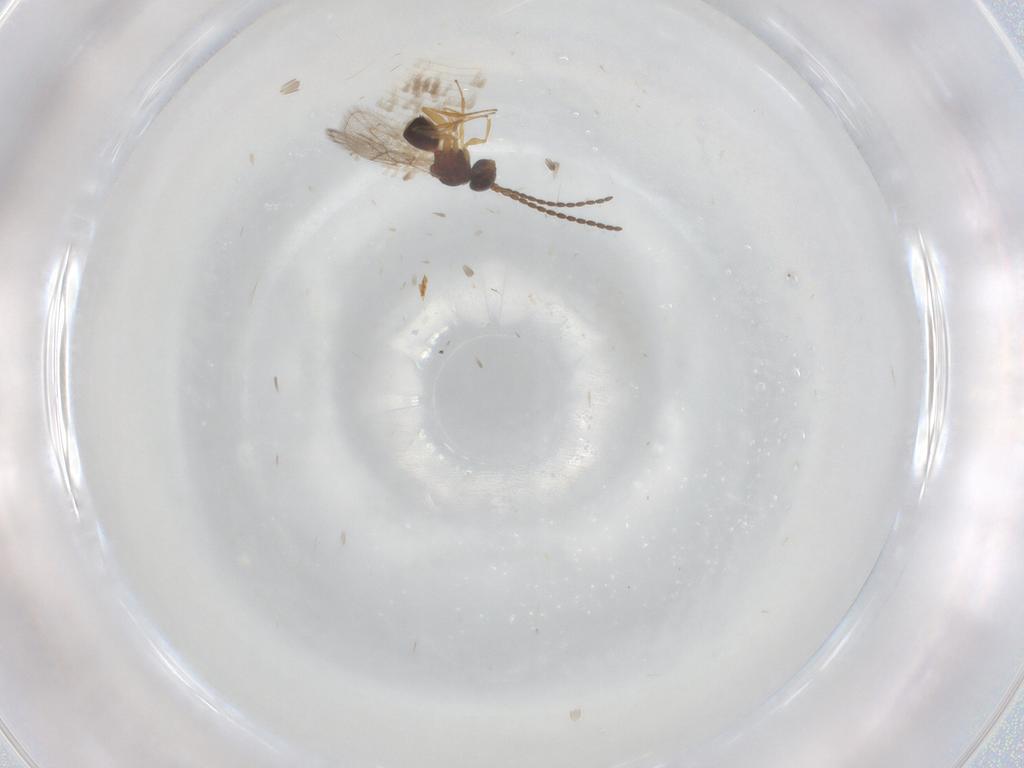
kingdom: Animalia
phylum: Arthropoda
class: Insecta
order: Hymenoptera
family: Figitidae
